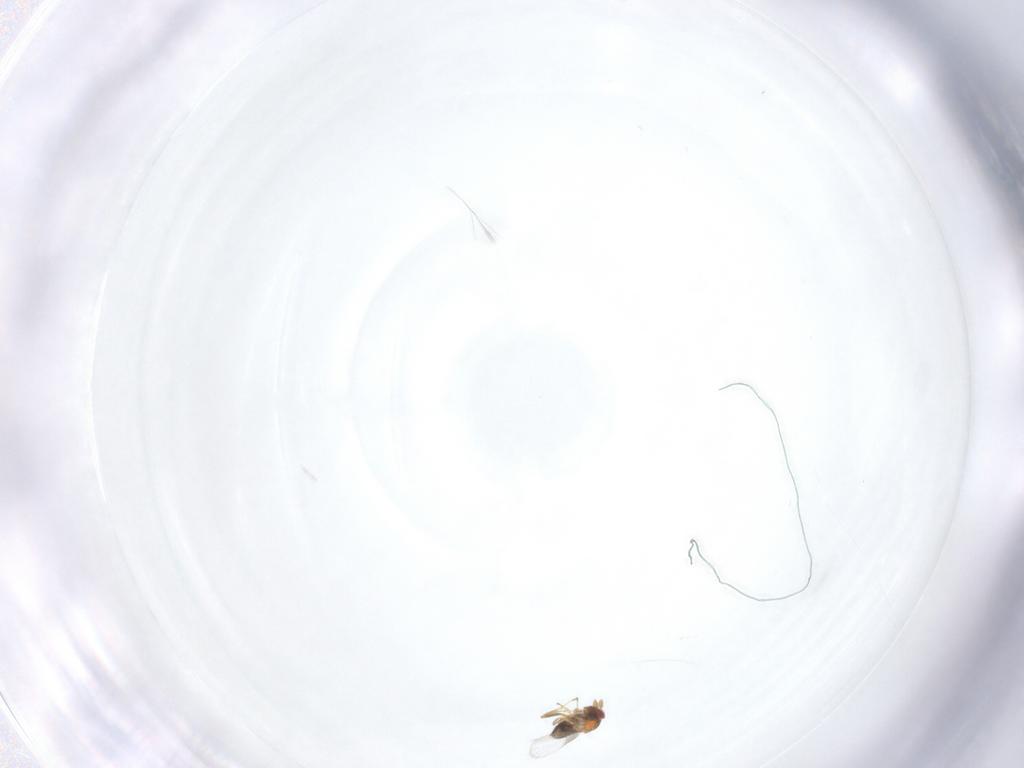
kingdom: Animalia
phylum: Arthropoda
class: Insecta
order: Hymenoptera
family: Trichogrammatidae
